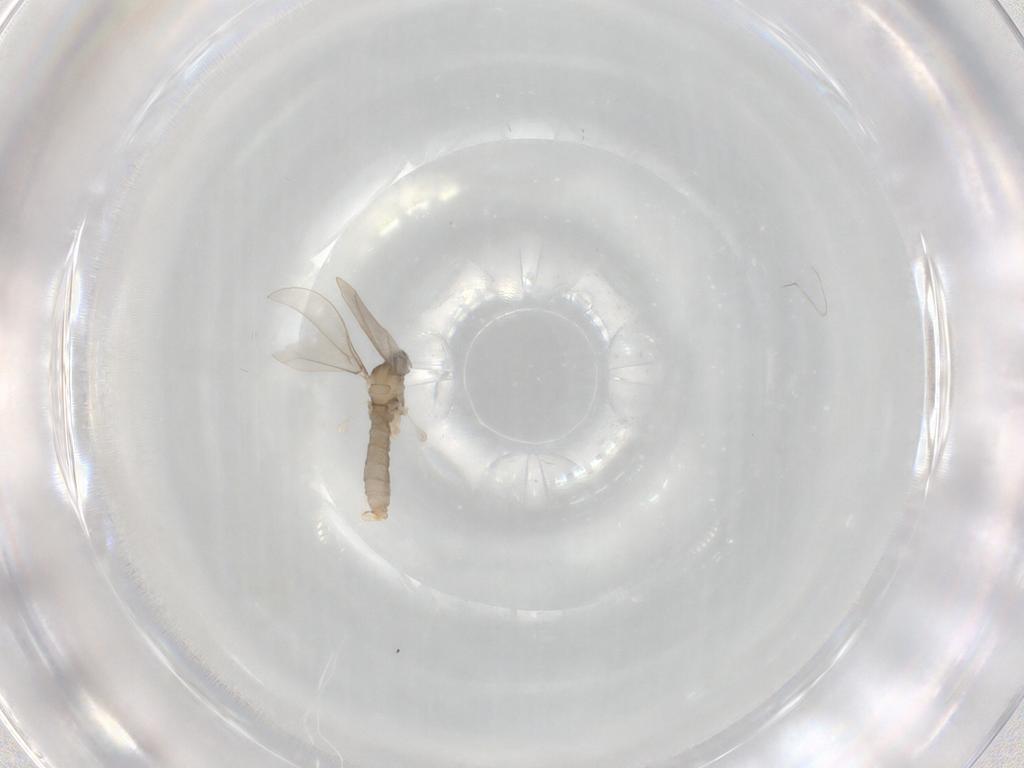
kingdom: Animalia
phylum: Arthropoda
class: Insecta
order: Diptera
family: Cecidomyiidae
